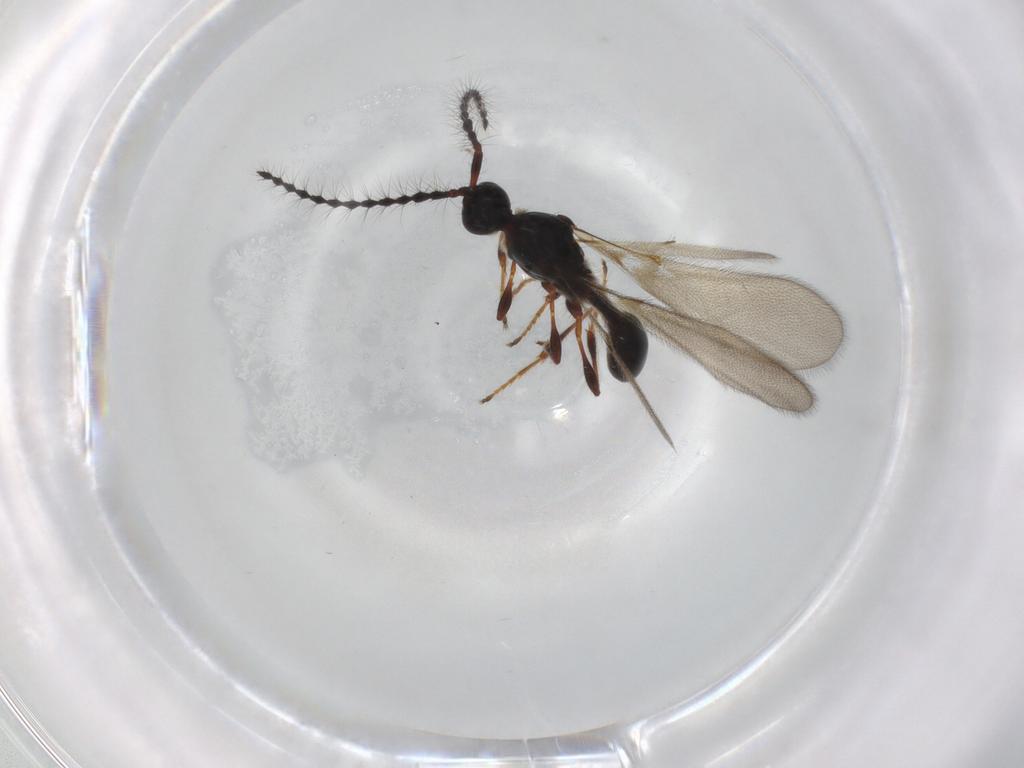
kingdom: Animalia
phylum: Arthropoda
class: Insecta
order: Hymenoptera
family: Diapriidae
